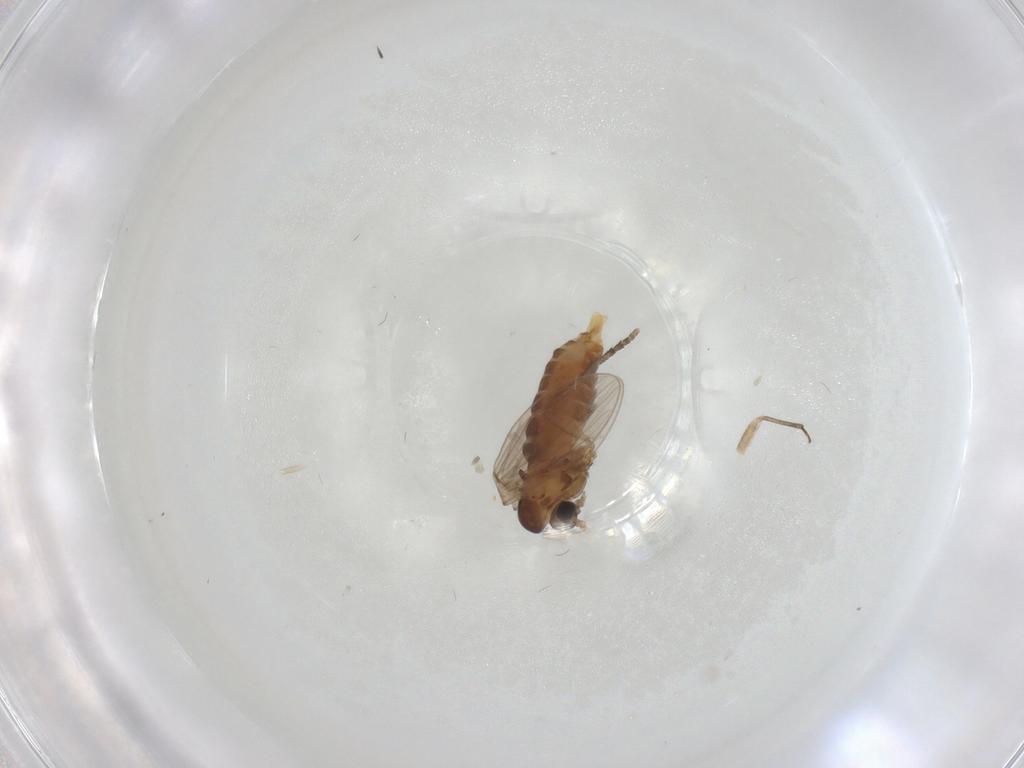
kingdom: Animalia
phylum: Arthropoda
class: Insecta
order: Diptera
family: Psychodidae
